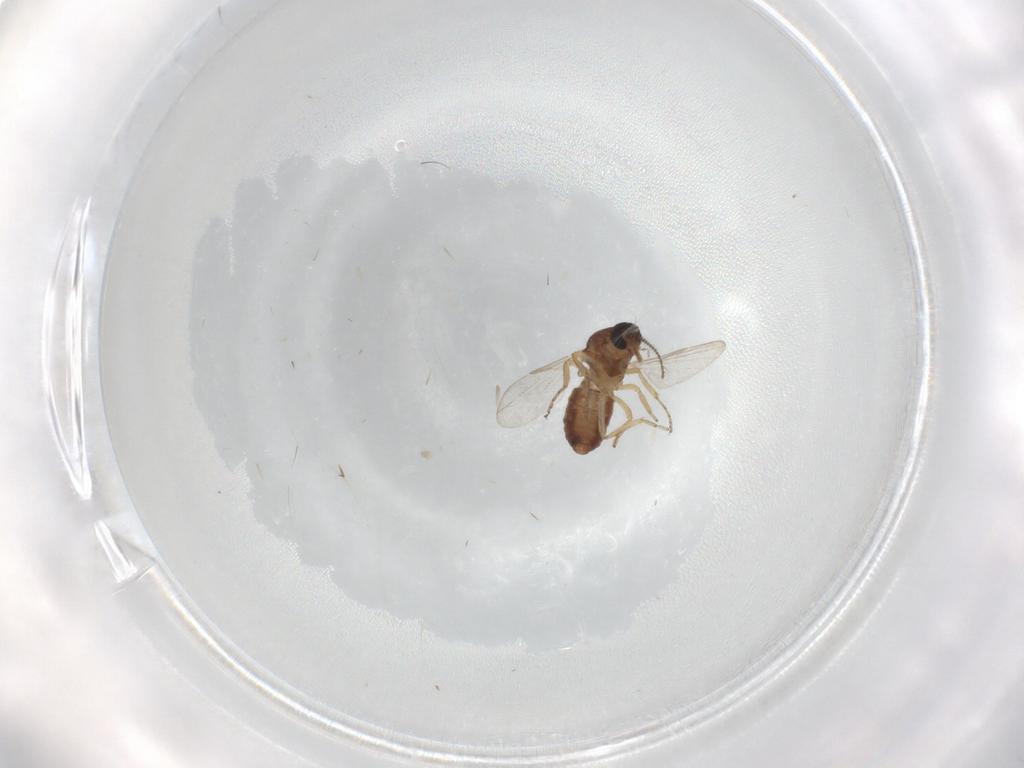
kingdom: Animalia
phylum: Arthropoda
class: Insecta
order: Diptera
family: Ceratopogonidae
